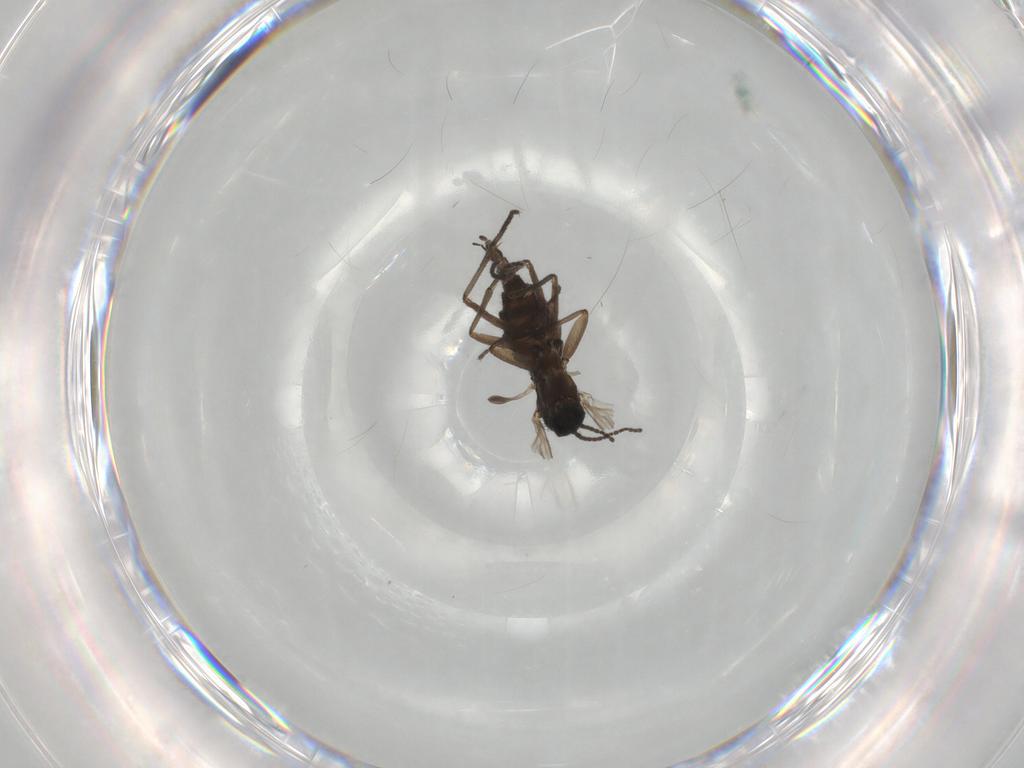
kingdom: Animalia
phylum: Arthropoda
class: Insecta
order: Diptera
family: Sciaridae
